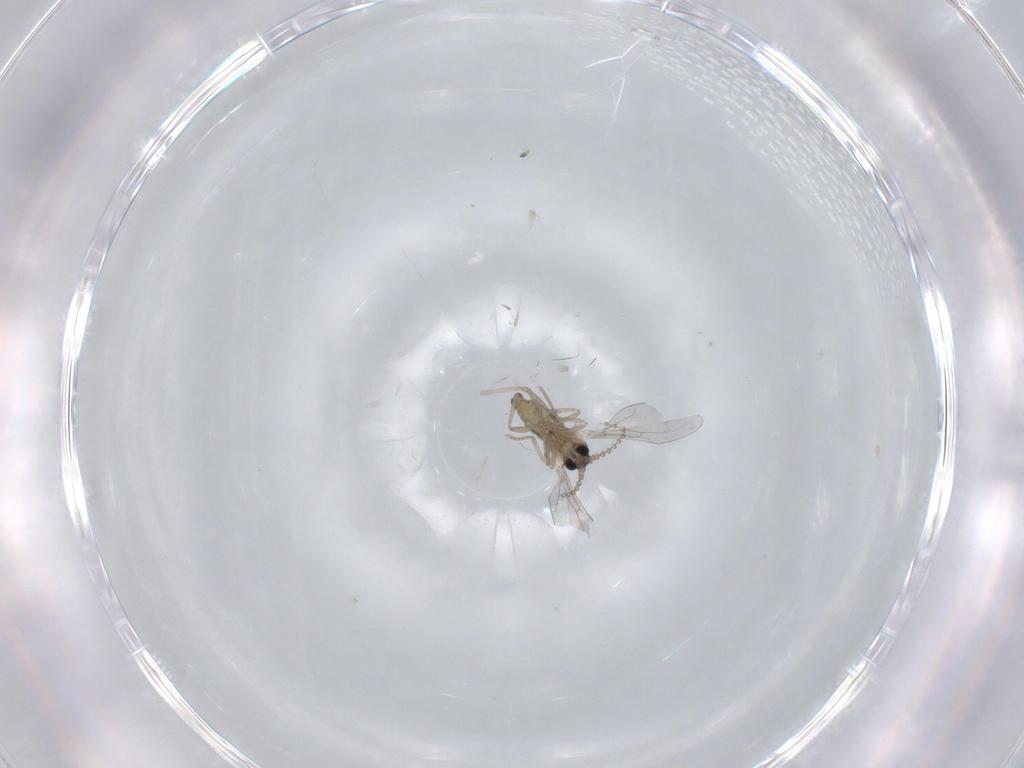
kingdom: Animalia
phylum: Arthropoda
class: Insecta
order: Diptera
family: Cecidomyiidae
